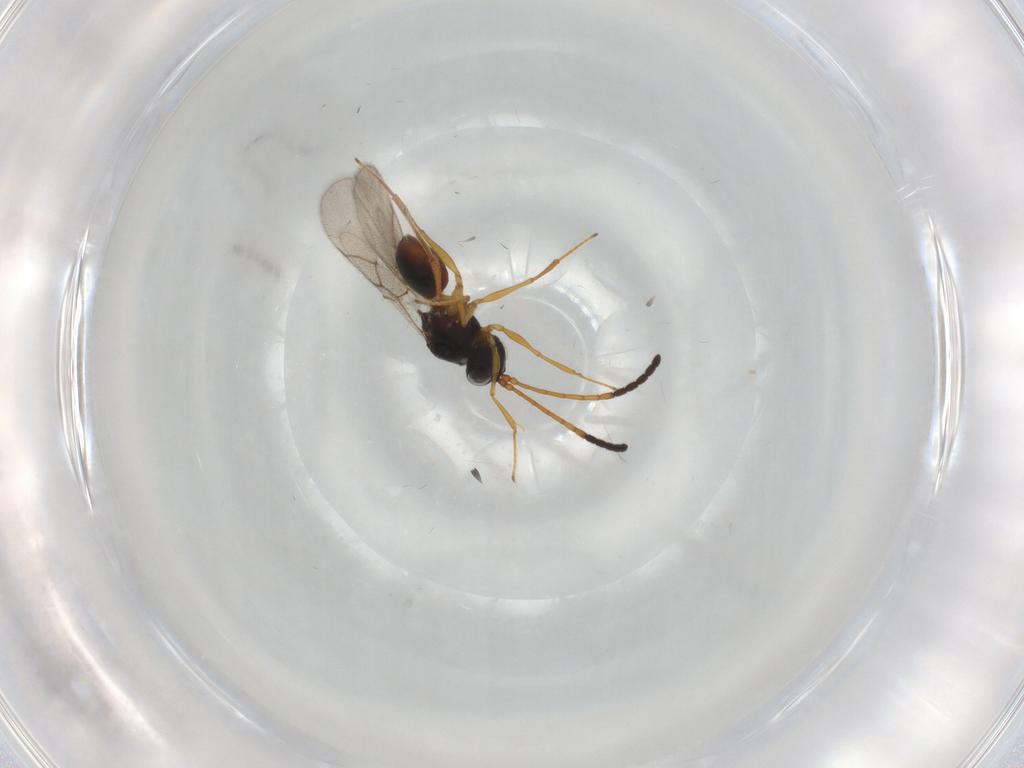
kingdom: Animalia
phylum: Arthropoda
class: Insecta
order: Hymenoptera
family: Figitidae
